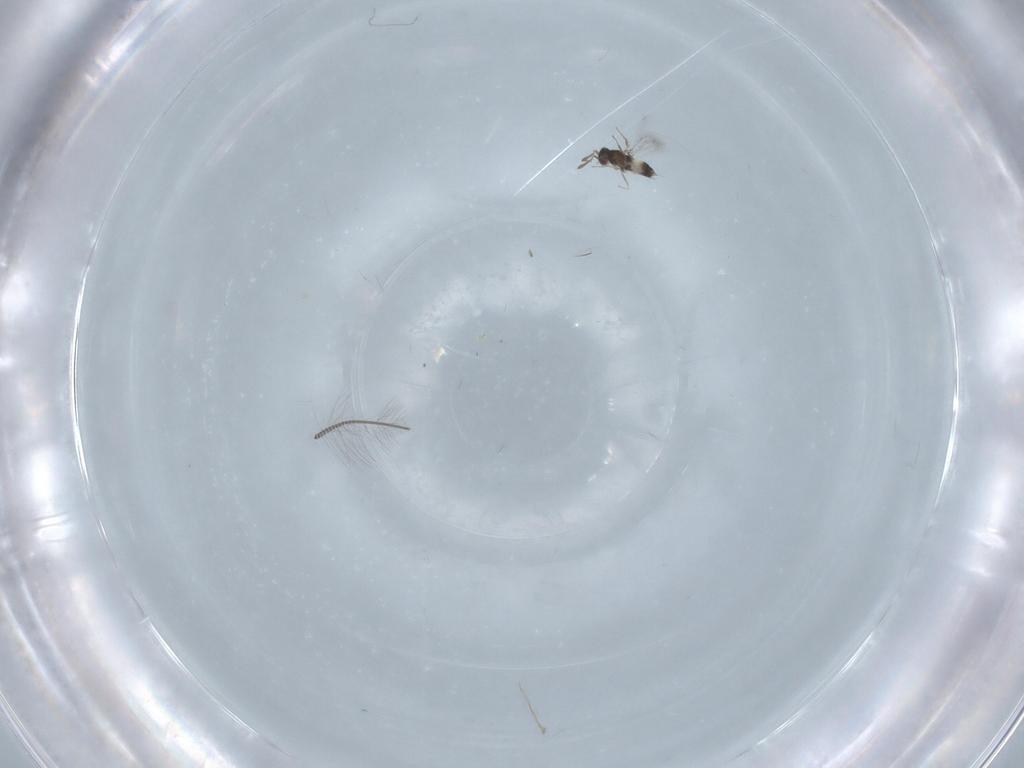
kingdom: Animalia
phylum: Arthropoda
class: Insecta
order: Hymenoptera
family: Mymaridae
